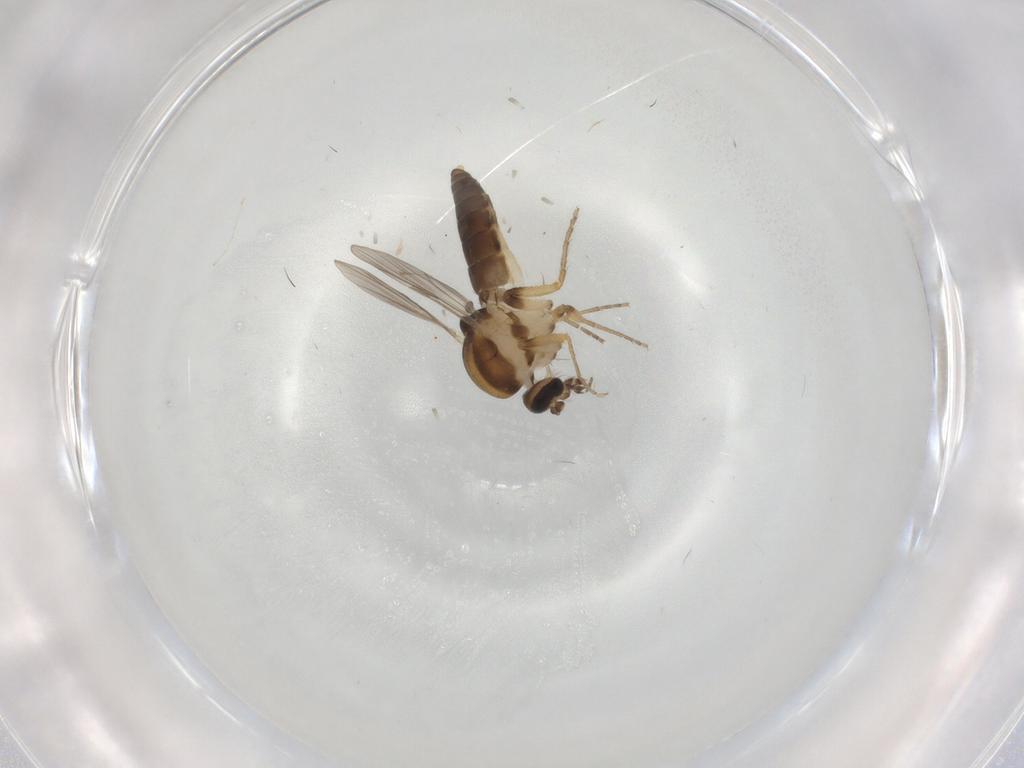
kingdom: Animalia
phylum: Arthropoda
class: Insecta
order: Diptera
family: Ceratopogonidae
